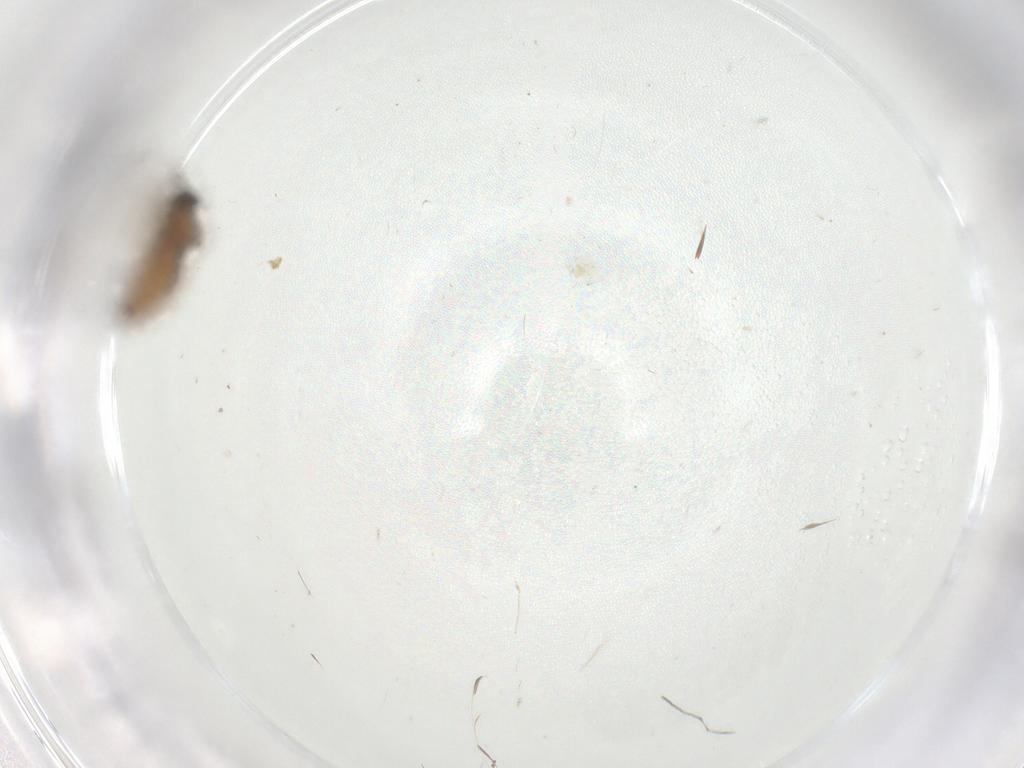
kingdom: Animalia
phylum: Arthropoda
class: Insecta
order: Diptera
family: Psychodidae
